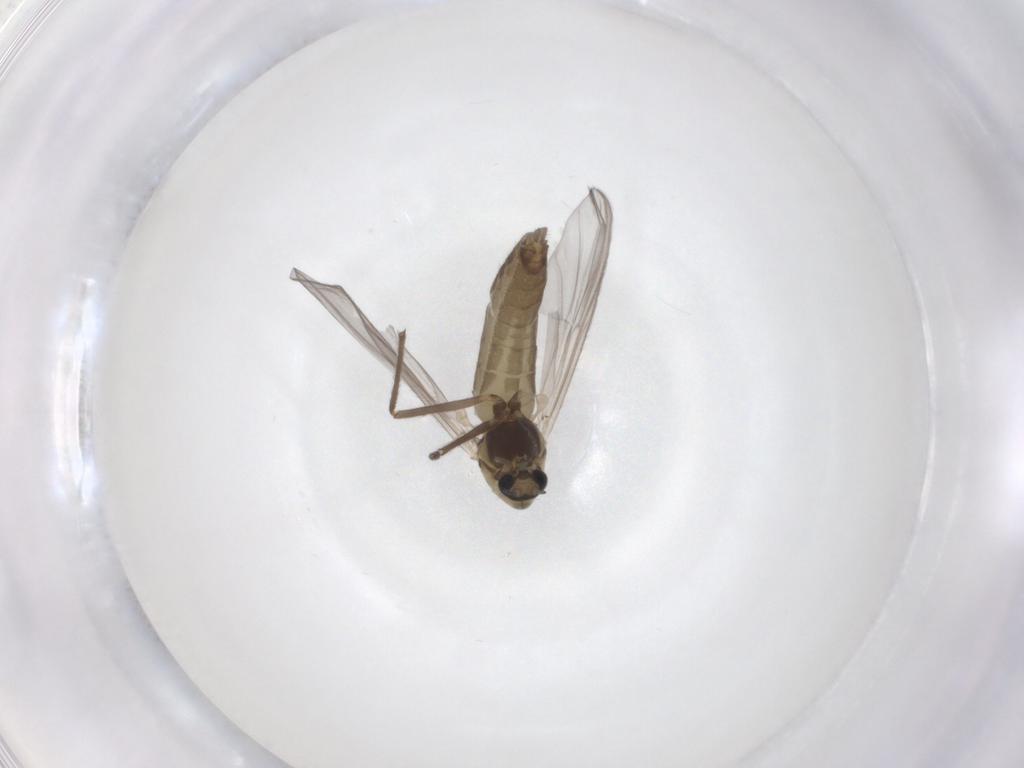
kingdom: Animalia
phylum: Arthropoda
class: Insecta
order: Diptera
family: Chironomidae
